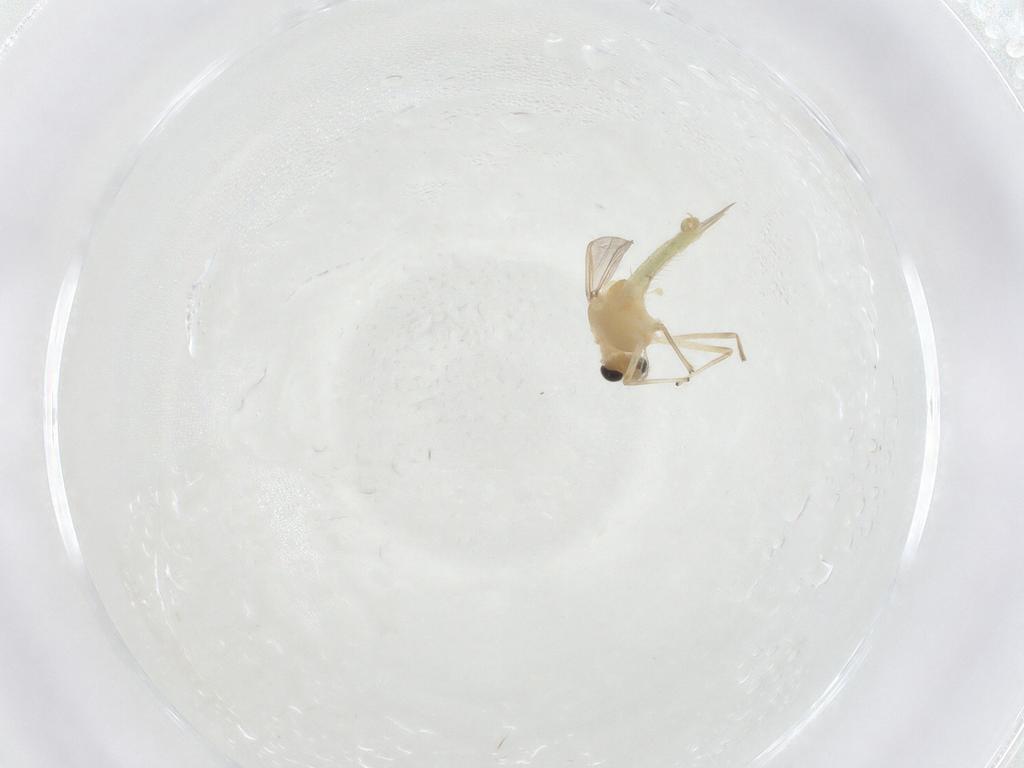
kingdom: Animalia
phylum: Arthropoda
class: Insecta
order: Diptera
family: Chironomidae
